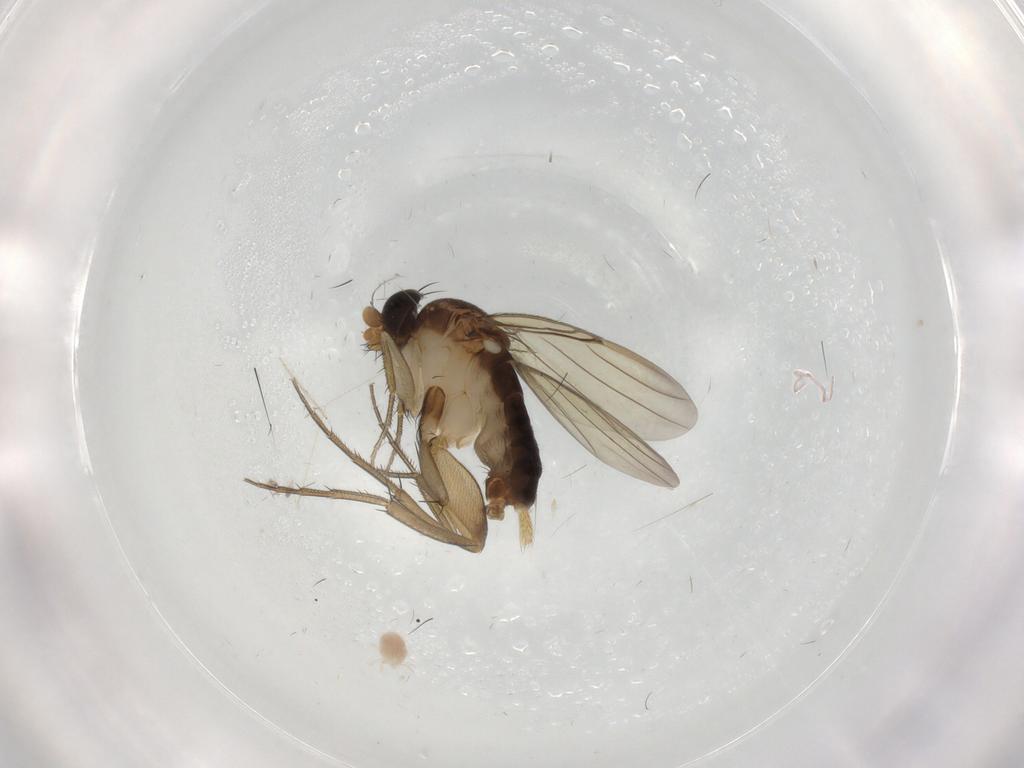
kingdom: Animalia
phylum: Arthropoda
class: Insecta
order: Diptera
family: Phoridae
